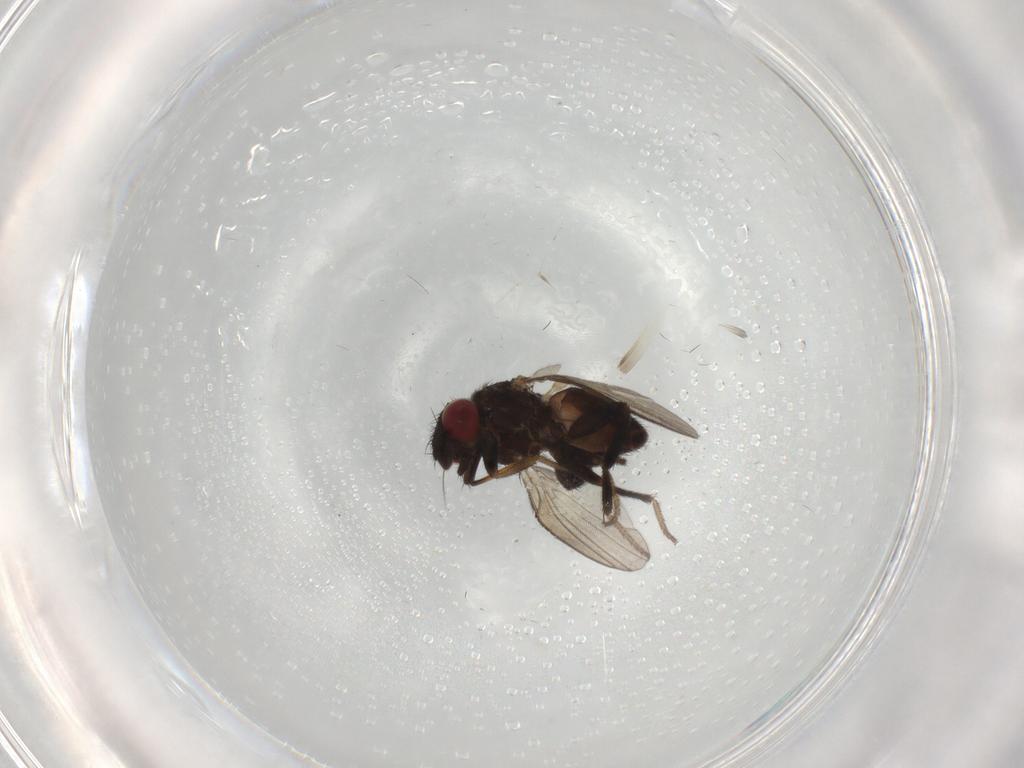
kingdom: Animalia
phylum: Arthropoda
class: Insecta
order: Diptera
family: Milichiidae
